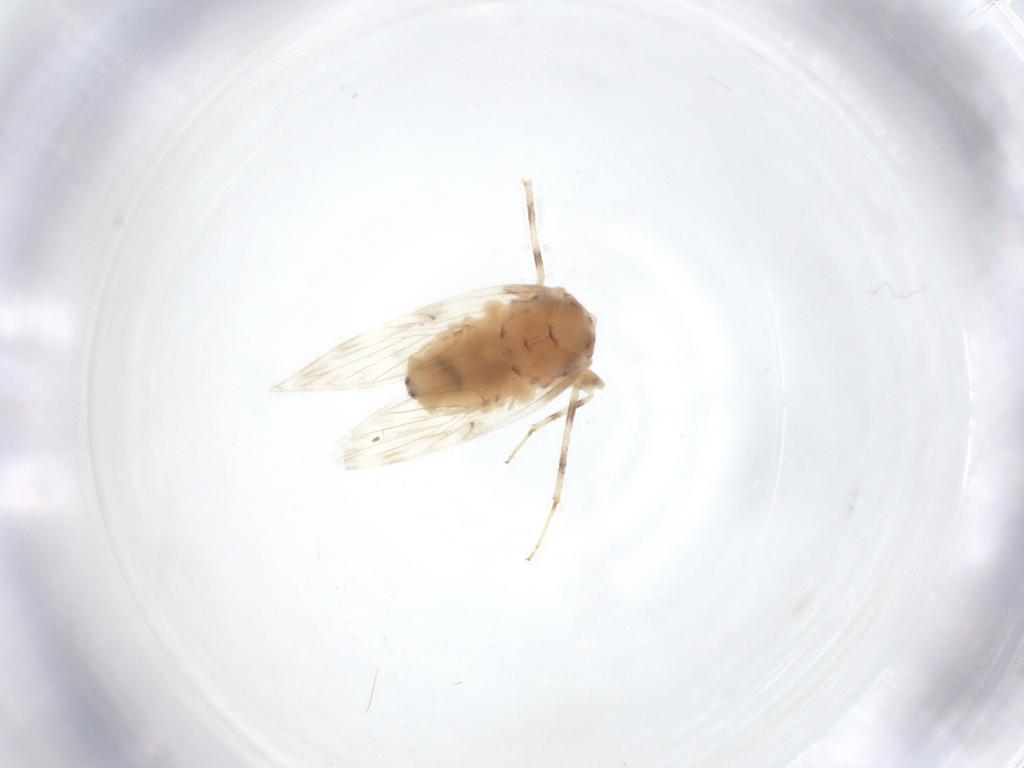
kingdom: Animalia
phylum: Arthropoda
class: Insecta
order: Psocodea
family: Lepidopsocidae
